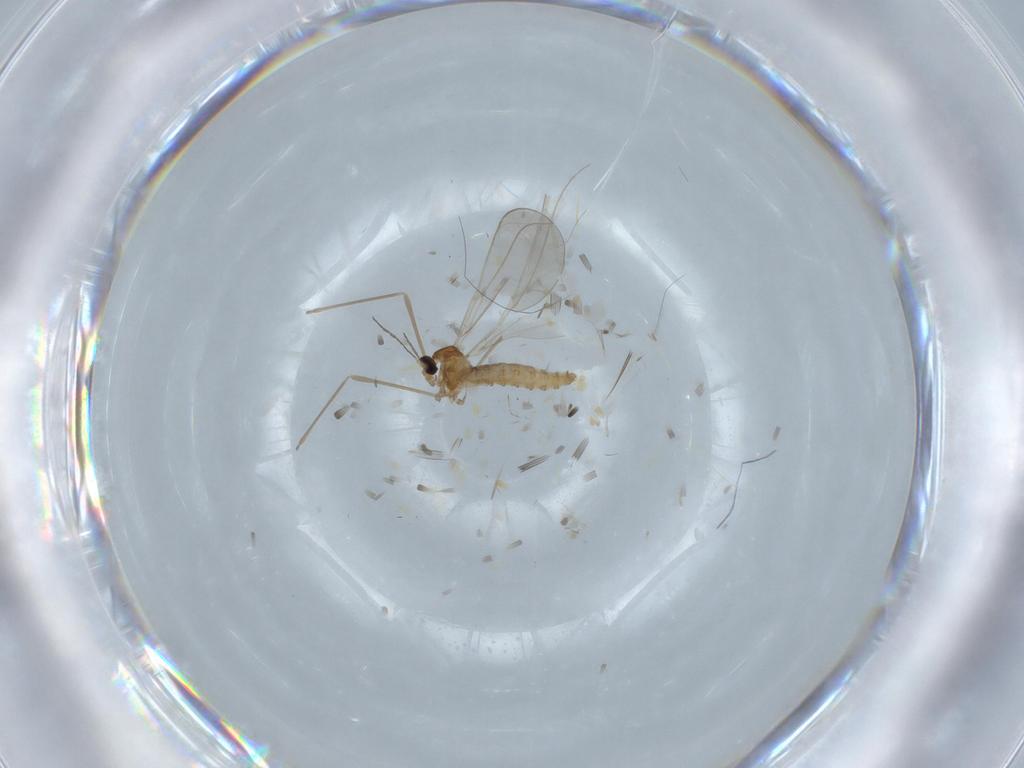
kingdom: Animalia
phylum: Arthropoda
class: Insecta
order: Diptera
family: Cecidomyiidae
